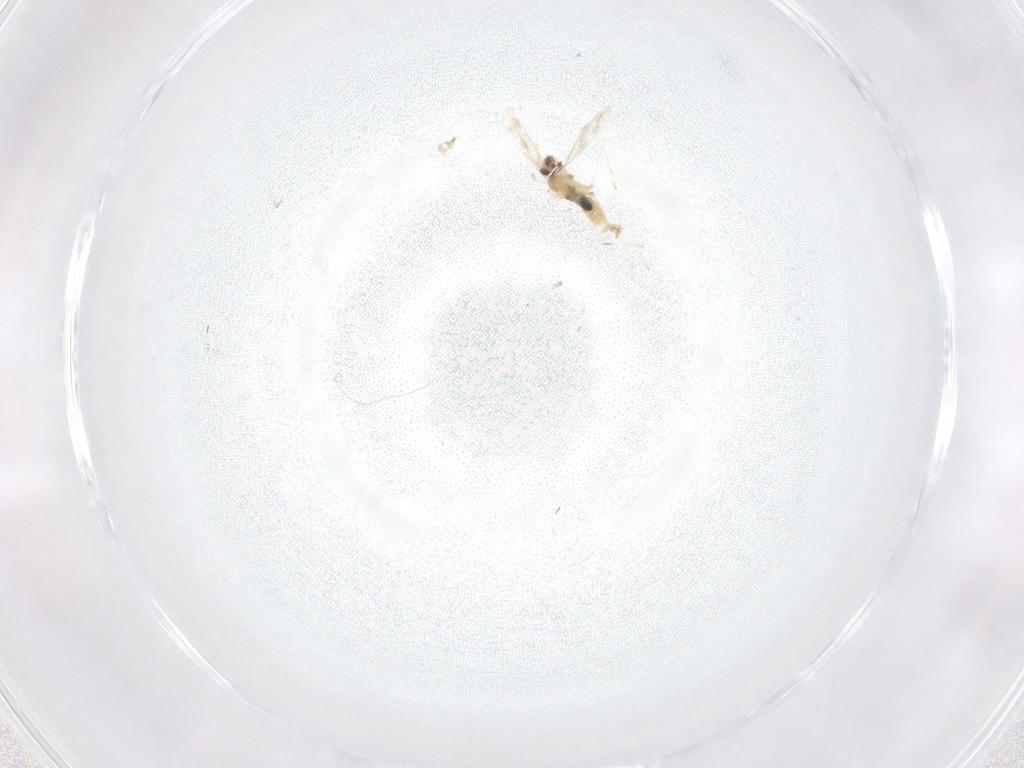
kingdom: Animalia
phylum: Arthropoda
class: Insecta
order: Diptera
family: Cecidomyiidae
